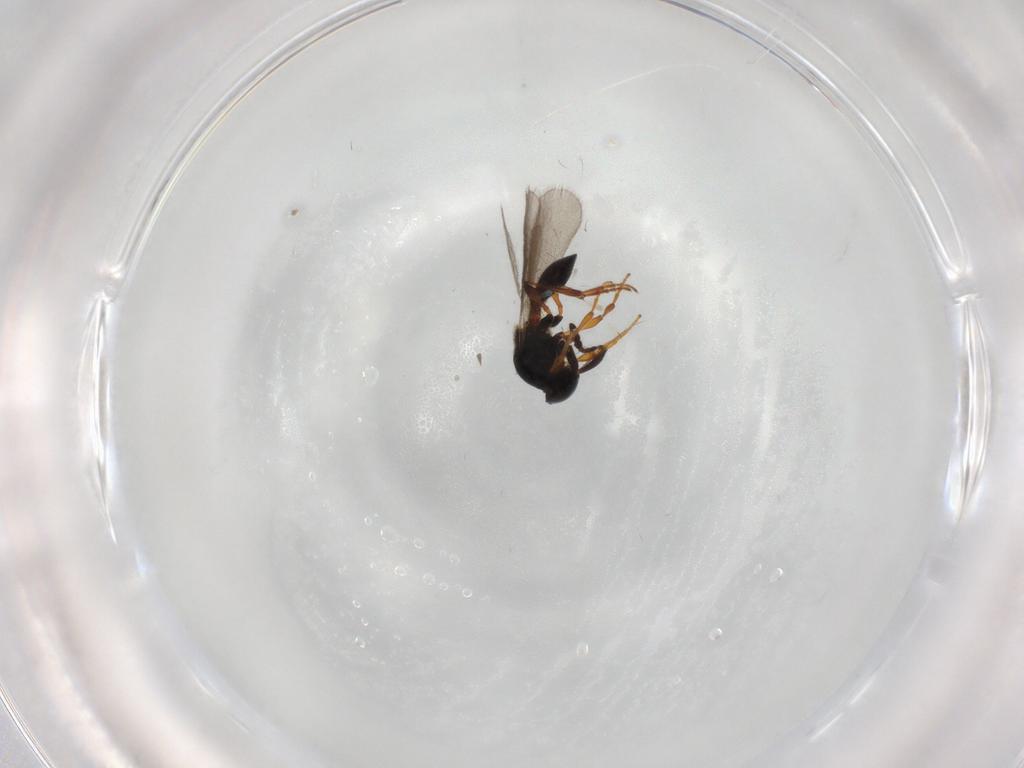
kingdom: Animalia
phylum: Arthropoda
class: Insecta
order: Hymenoptera
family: Platygastridae
